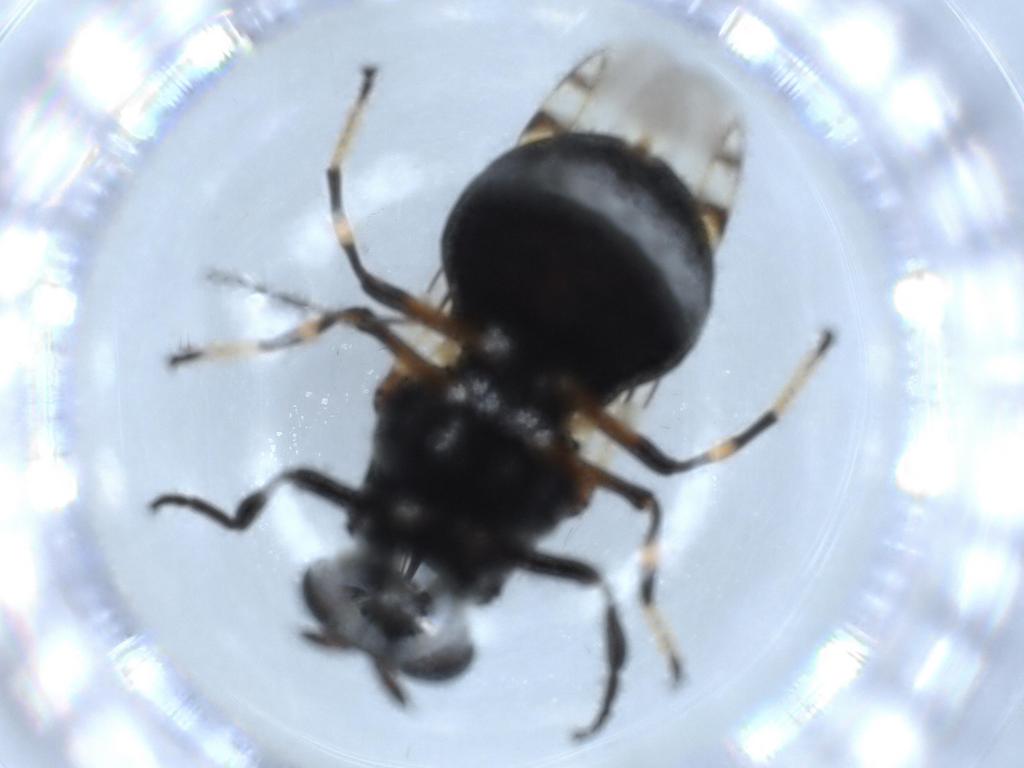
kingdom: Animalia
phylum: Arthropoda
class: Insecta
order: Diptera
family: Stratiomyidae
